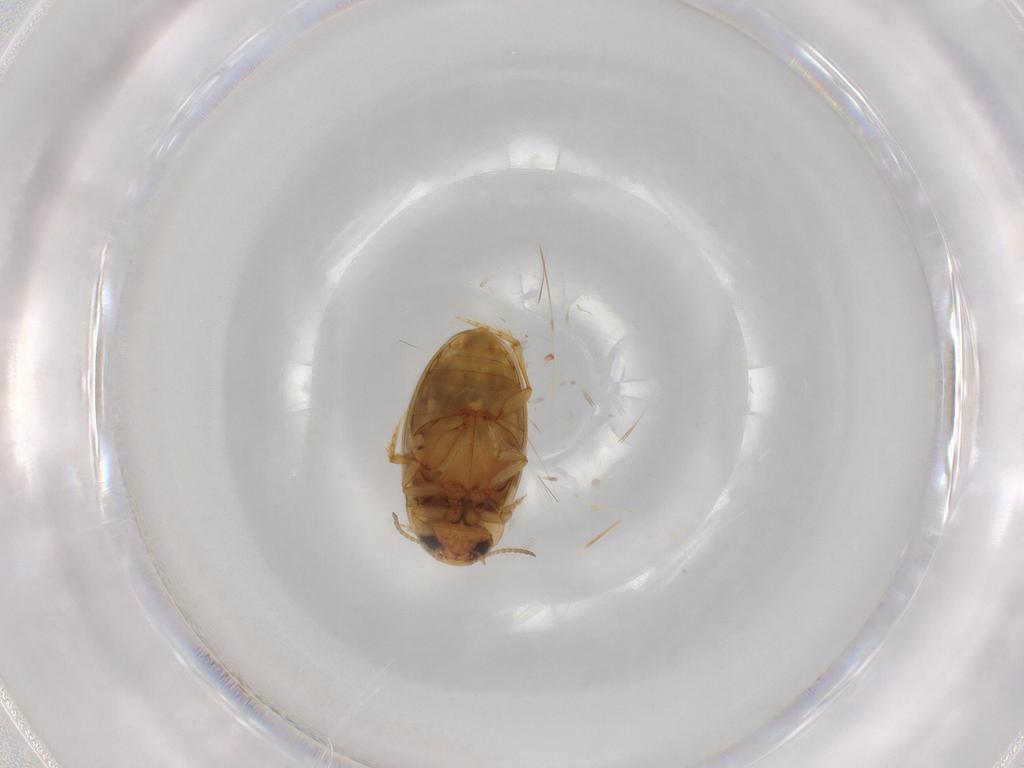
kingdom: Animalia
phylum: Arthropoda
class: Insecta
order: Coleoptera
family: Dytiscidae
